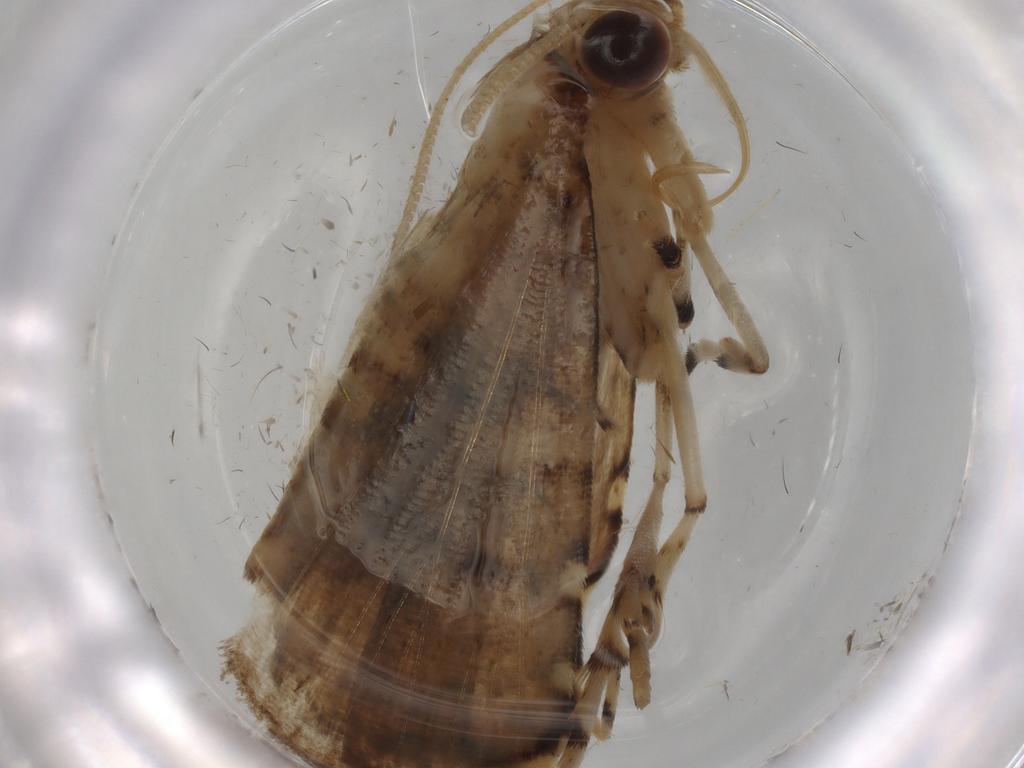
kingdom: Animalia
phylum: Arthropoda
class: Insecta
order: Lepidoptera
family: Crambidae
